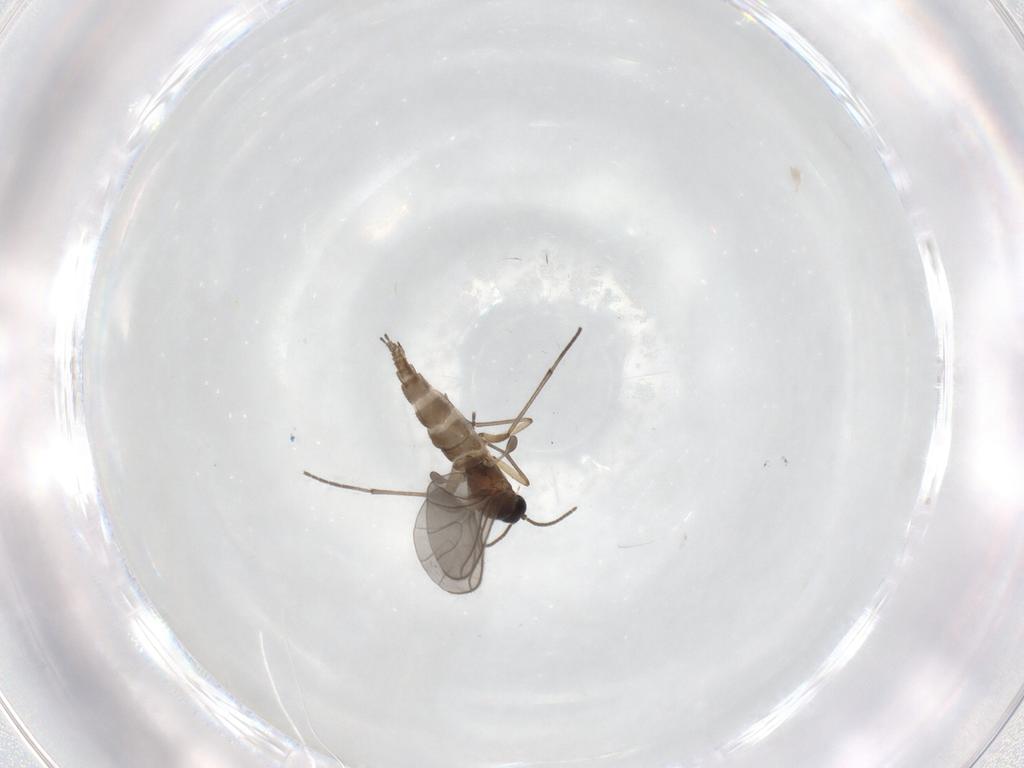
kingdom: Animalia
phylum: Arthropoda
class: Insecta
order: Diptera
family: Sciaridae
